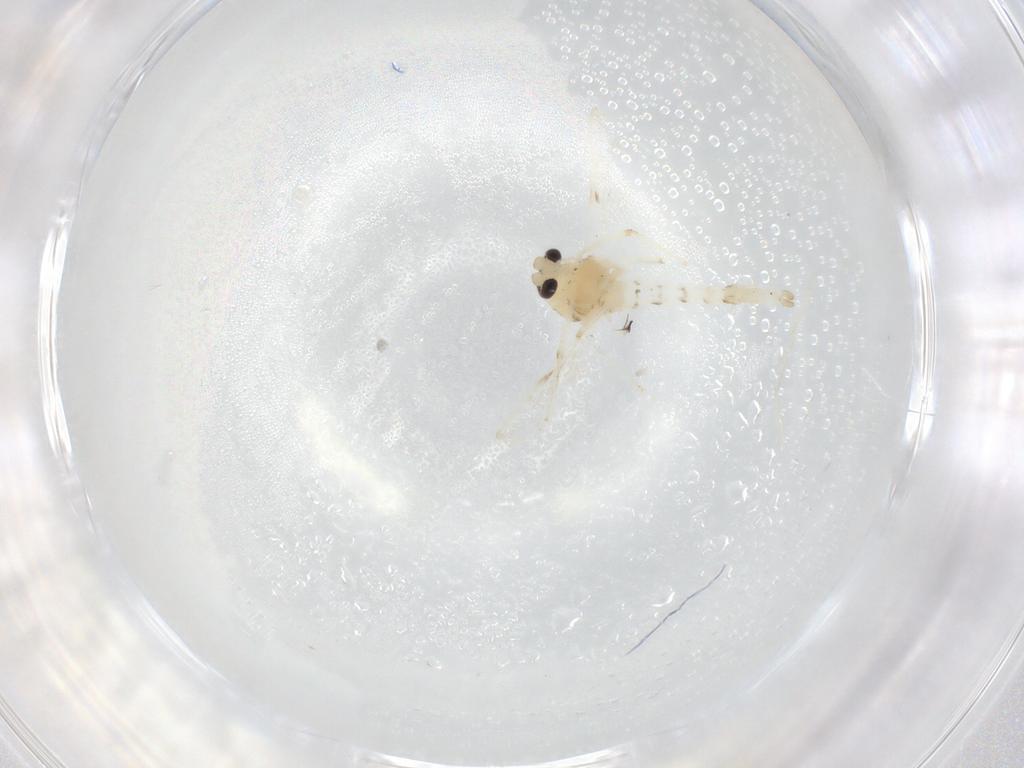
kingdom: Animalia
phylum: Arthropoda
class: Insecta
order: Diptera
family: Chironomidae
